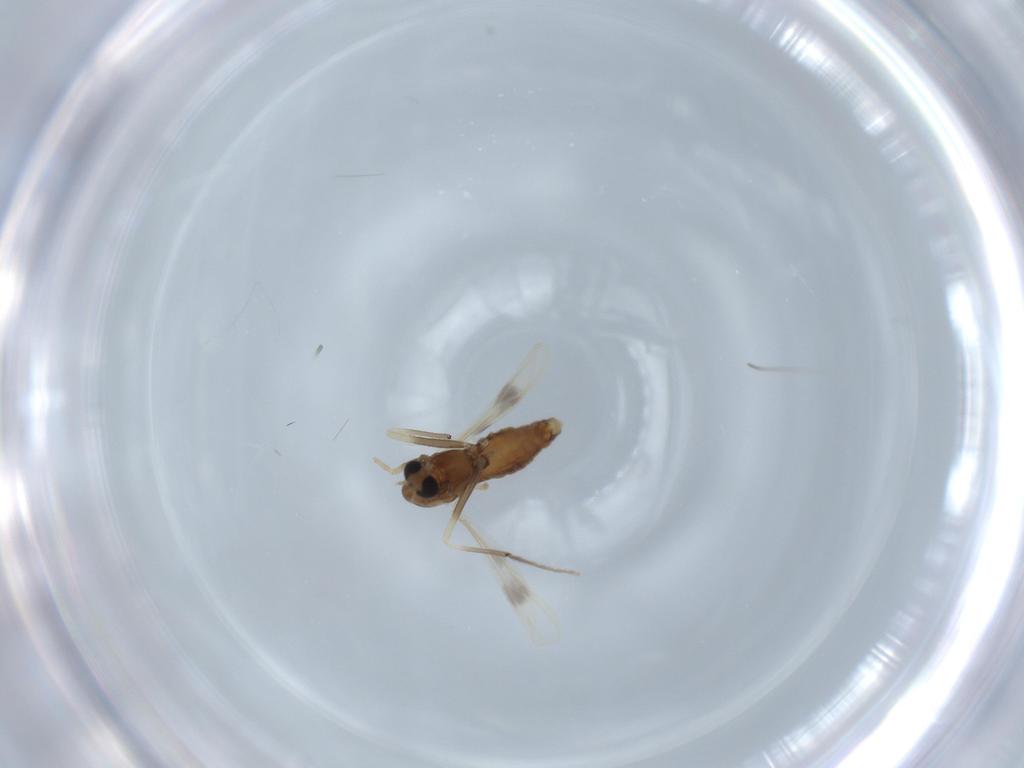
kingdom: Animalia
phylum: Arthropoda
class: Insecta
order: Diptera
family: Chironomidae
